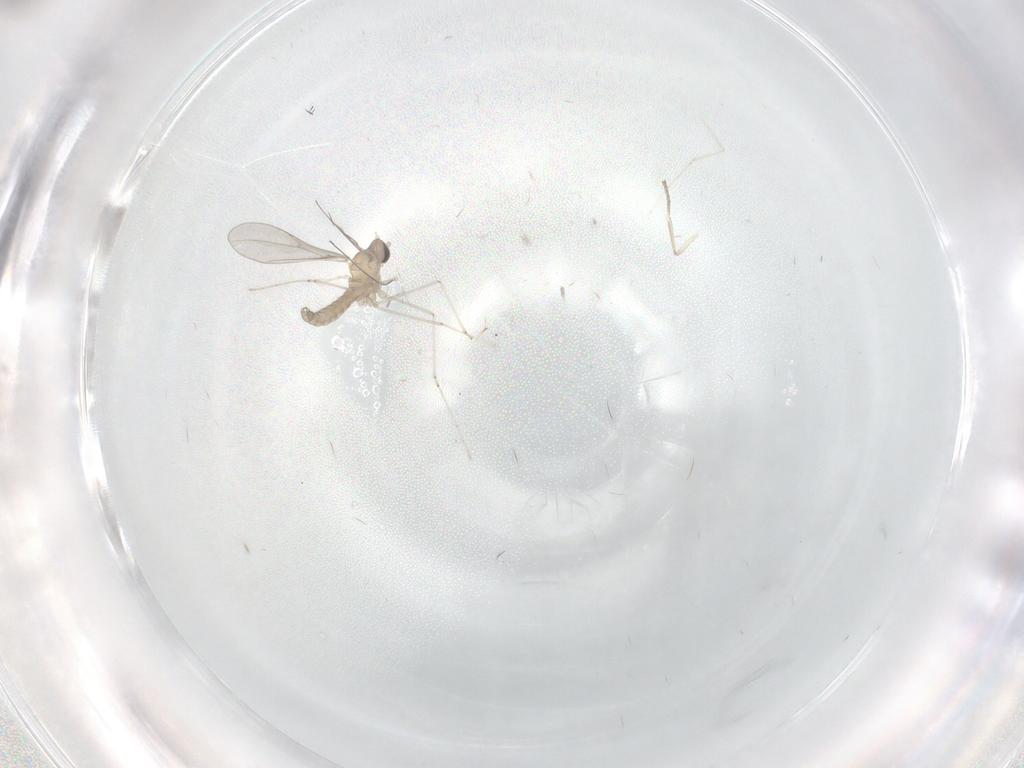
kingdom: Animalia
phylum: Arthropoda
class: Insecta
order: Diptera
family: Cecidomyiidae
